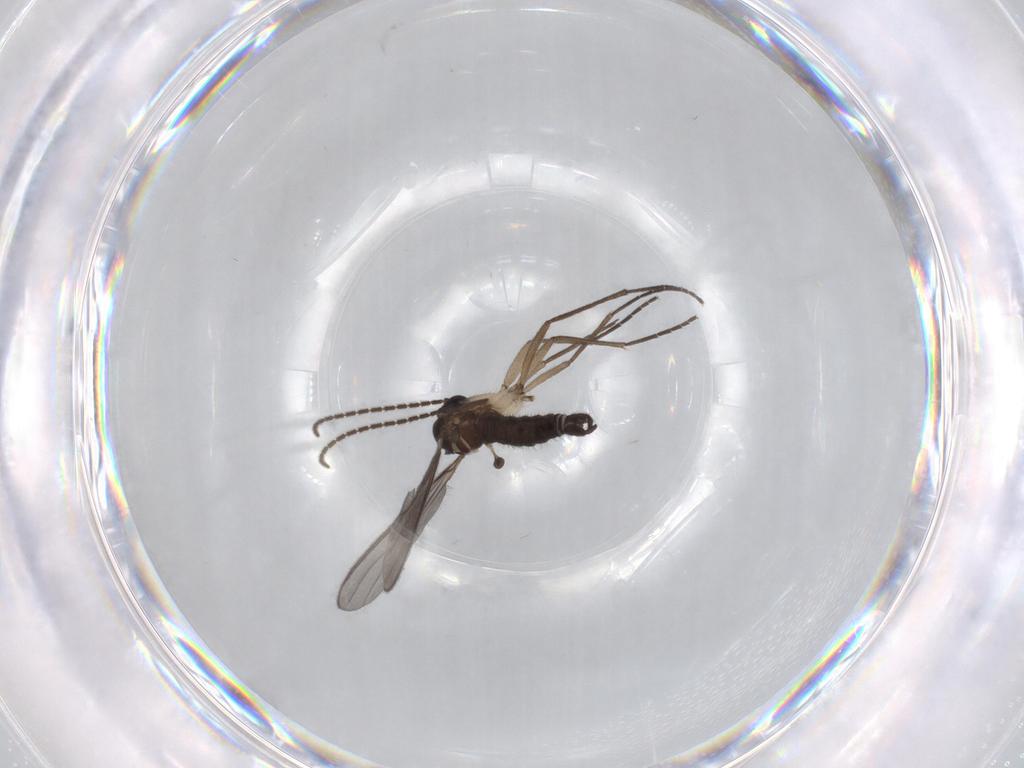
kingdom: Animalia
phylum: Arthropoda
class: Insecta
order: Diptera
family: Sciaridae
